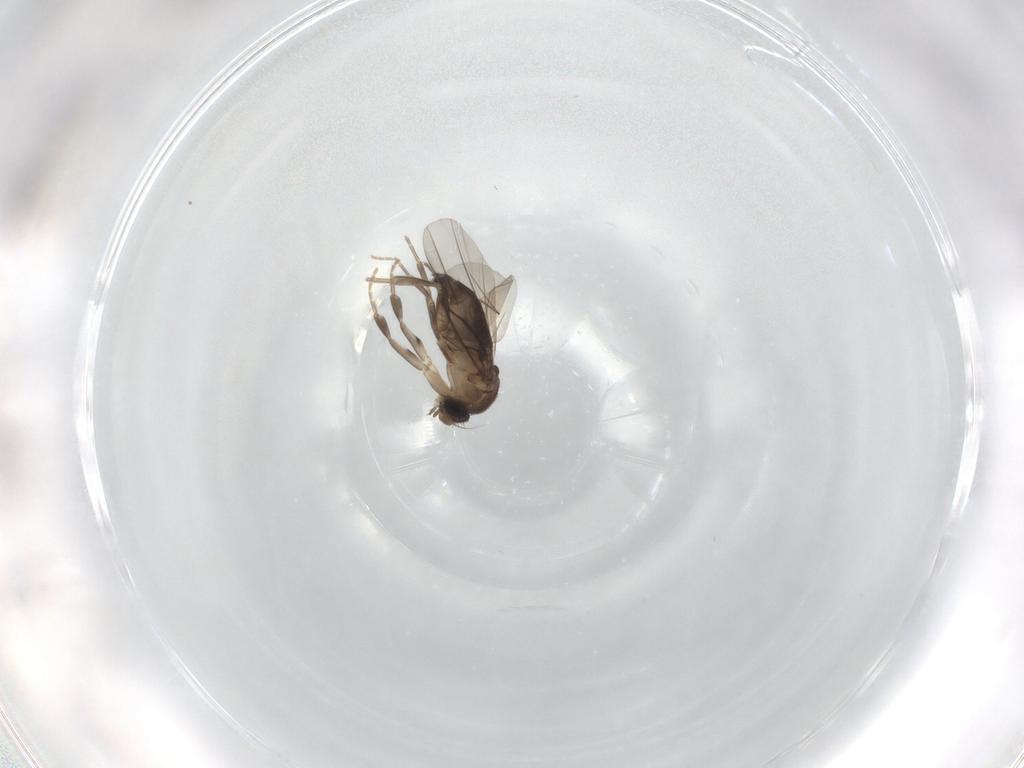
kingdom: Animalia
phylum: Arthropoda
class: Insecta
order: Diptera
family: Phoridae
